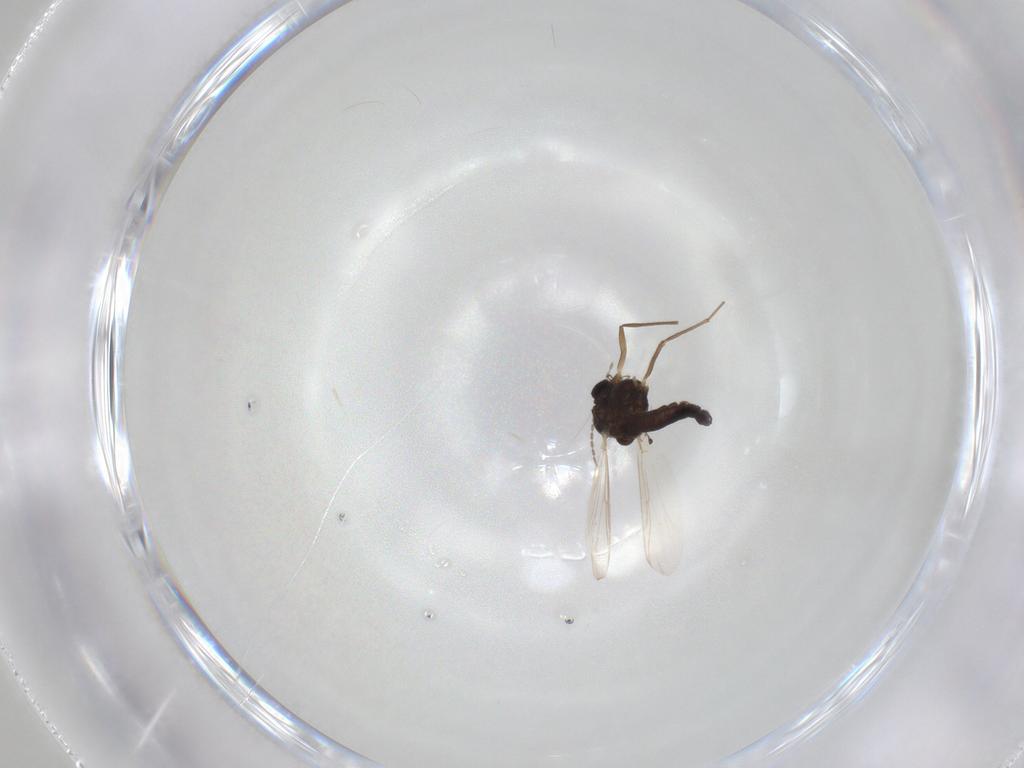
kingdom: Animalia
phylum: Arthropoda
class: Insecta
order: Diptera
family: Chironomidae
